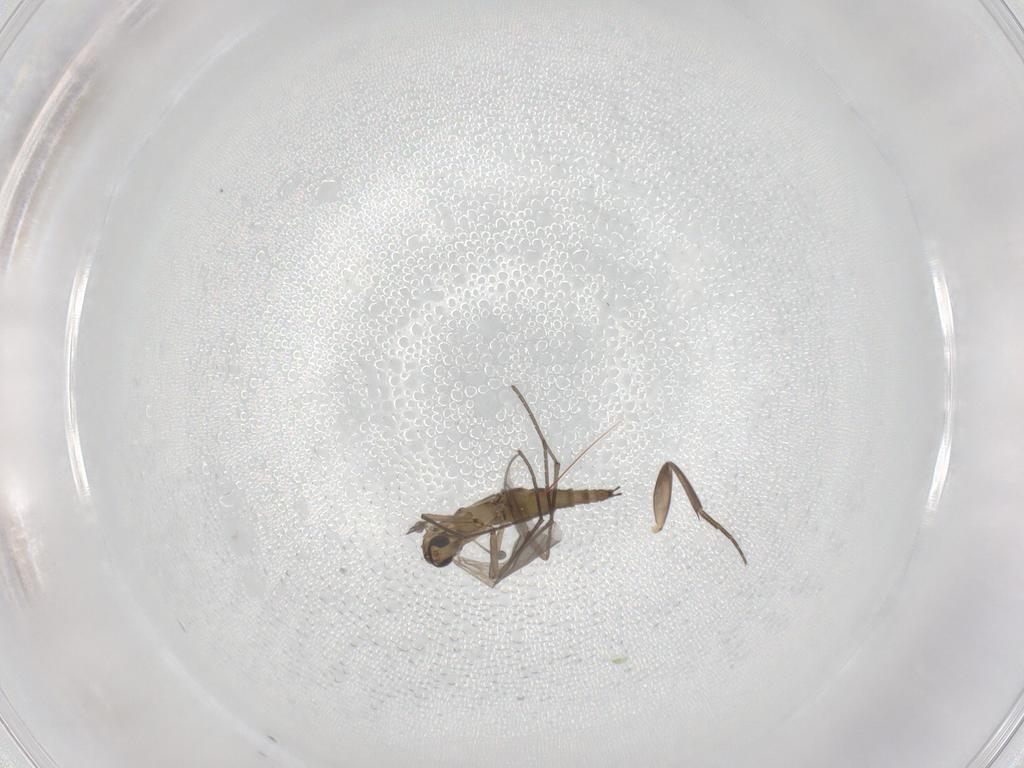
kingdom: Animalia
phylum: Arthropoda
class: Insecta
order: Diptera
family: Sciaridae
